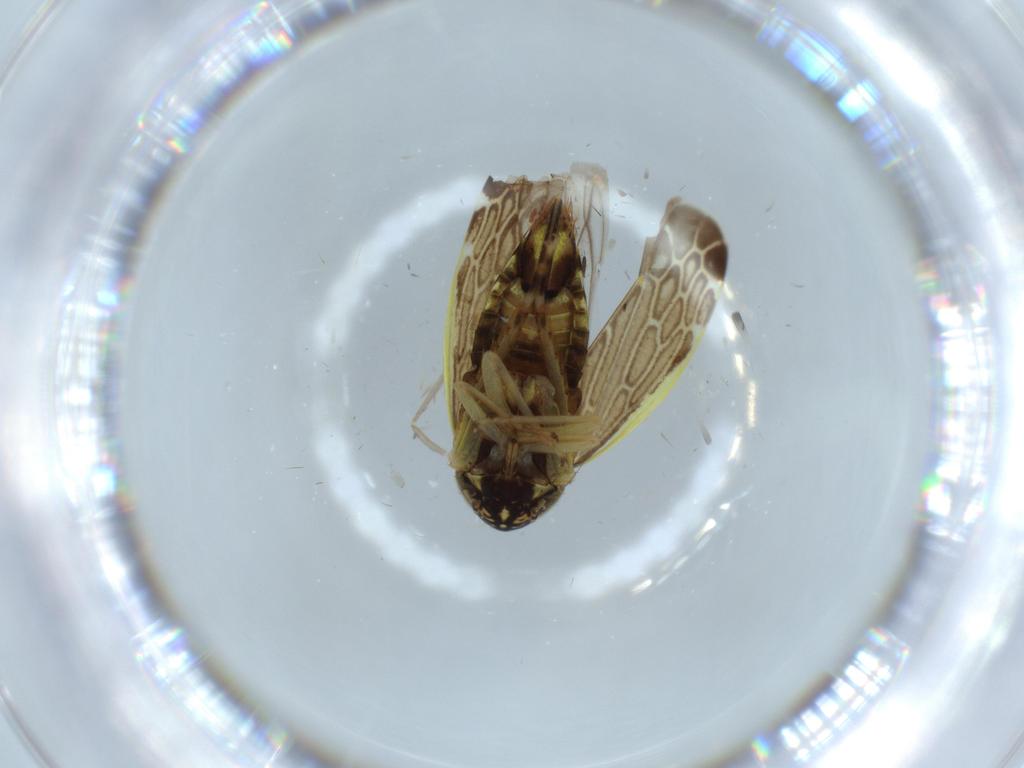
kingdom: Animalia
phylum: Arthropoda
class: Insecta
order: Hemiptera
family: Cicadellidae
